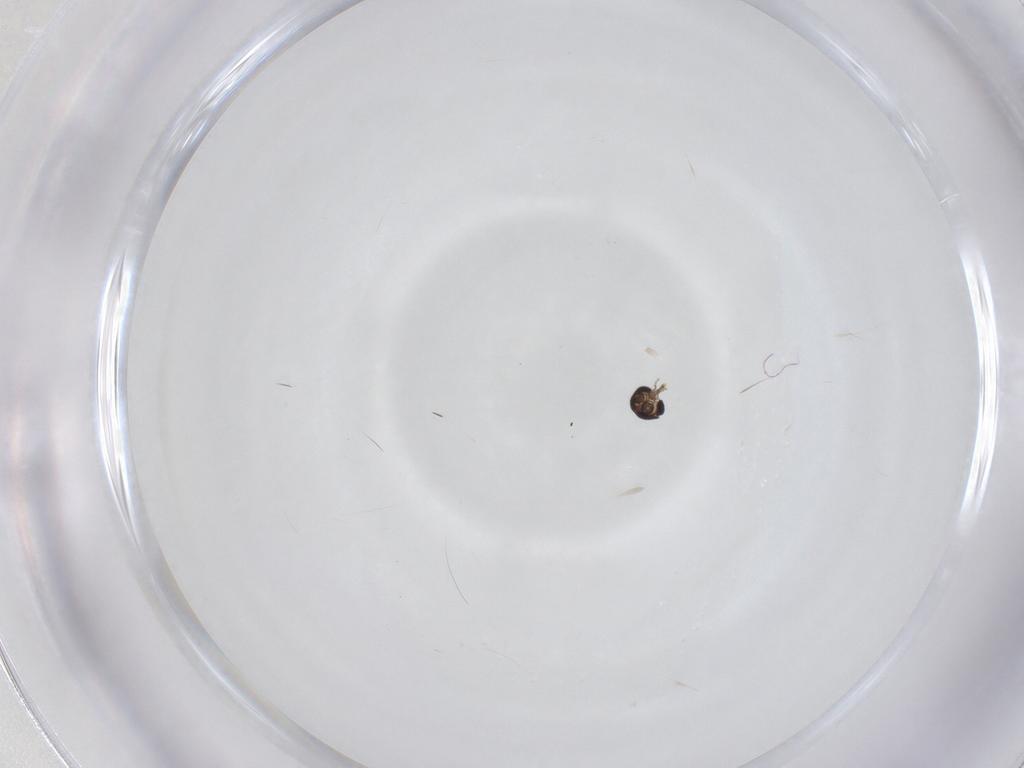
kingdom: Animalia
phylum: Arthropoda
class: Insecta
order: Diptera
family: Ceratopogonidae
